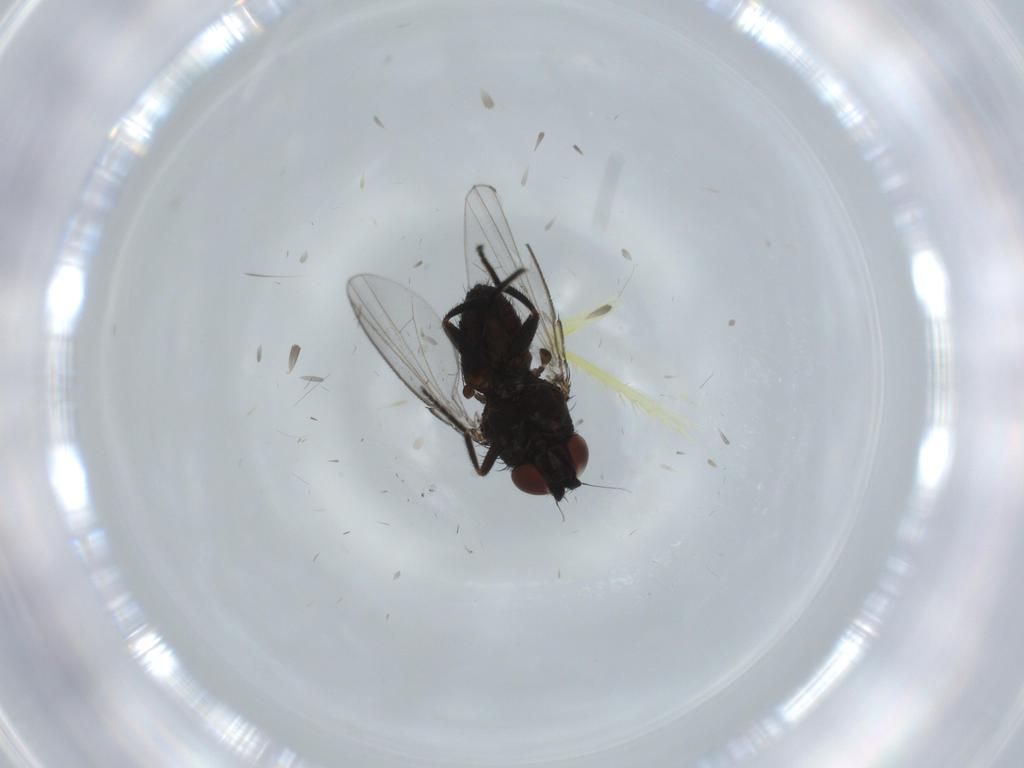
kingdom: Animalia
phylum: Arthropoda
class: Insecta
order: Diptera
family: Milichiidae
